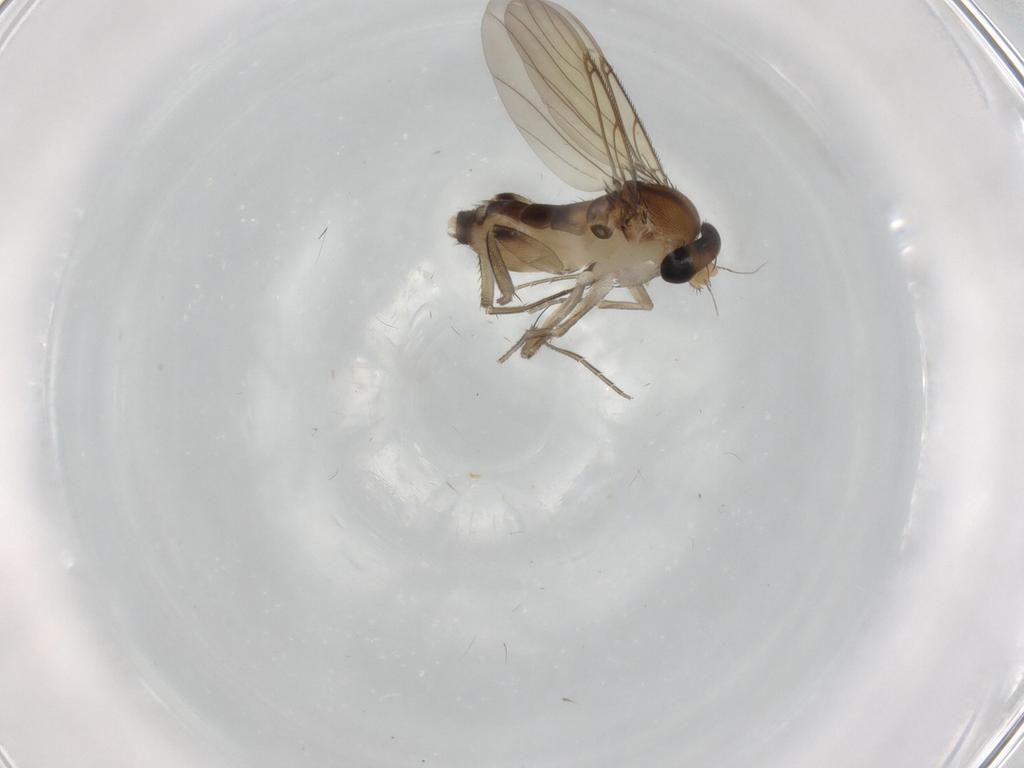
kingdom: Animalia
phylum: Arthropoda
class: Insecta
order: Diptera
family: Phoridae
